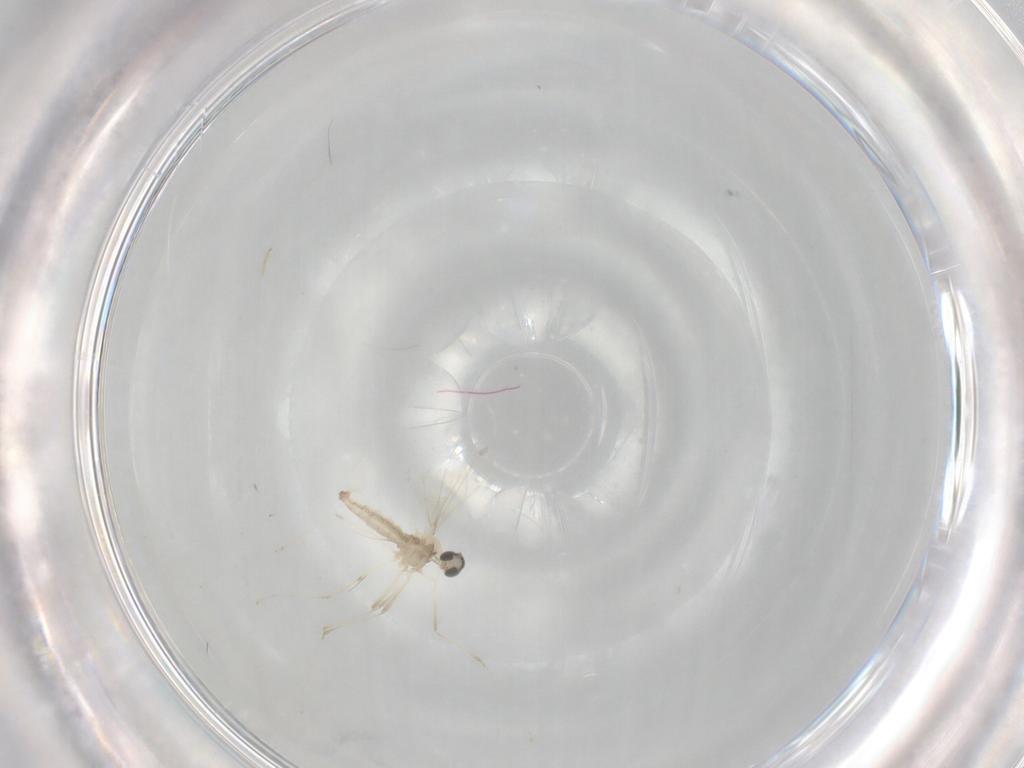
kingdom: Animalia
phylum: Arthropoda
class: Insecta
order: Diptera
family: Cecidomyiidae
